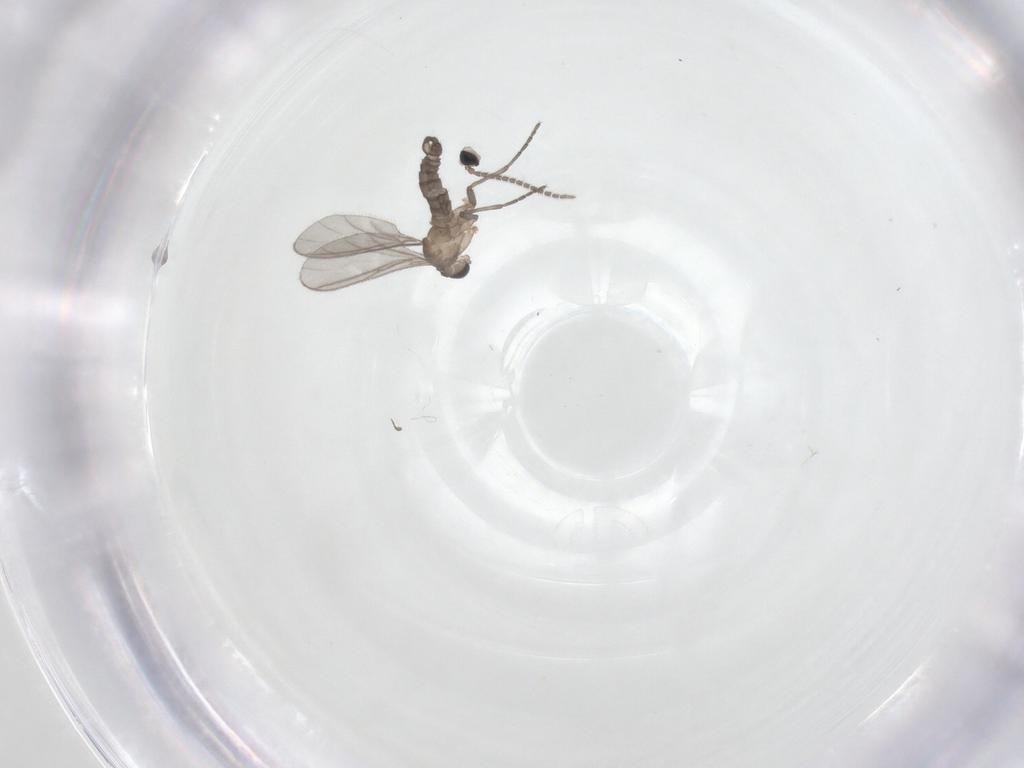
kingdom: Animalia
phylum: Arthropoda
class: Insecta
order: Diptera
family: Sciaridae
